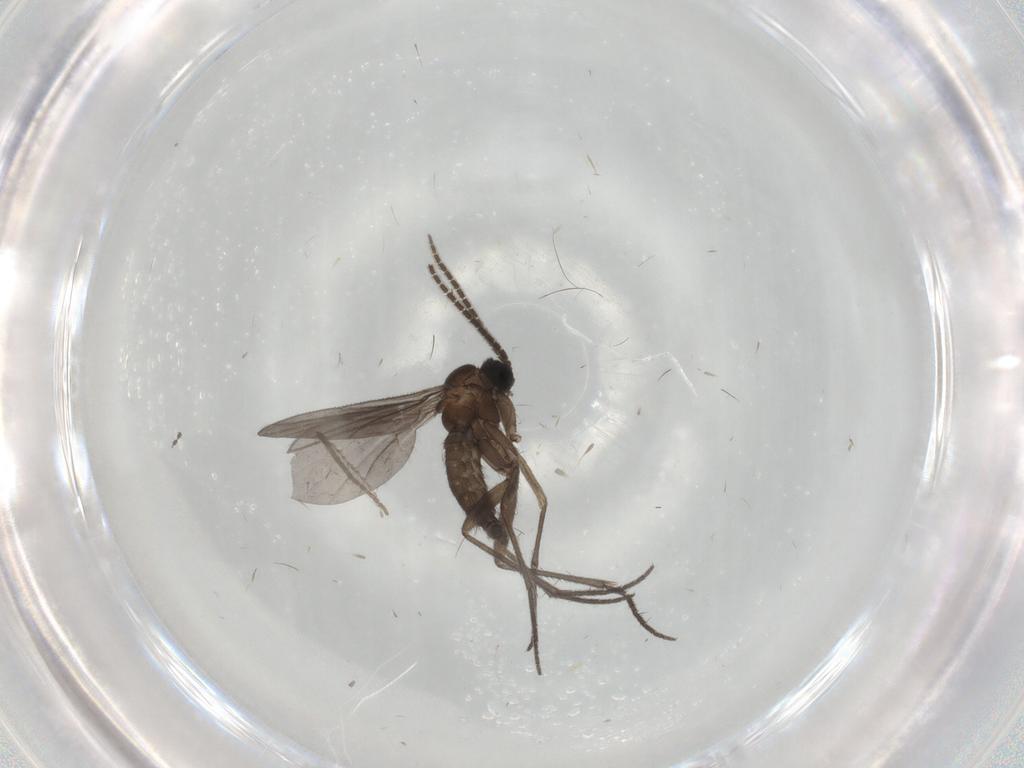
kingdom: Animalia
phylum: Arthropoda
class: Insecta
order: Diptera
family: Sciaridae
